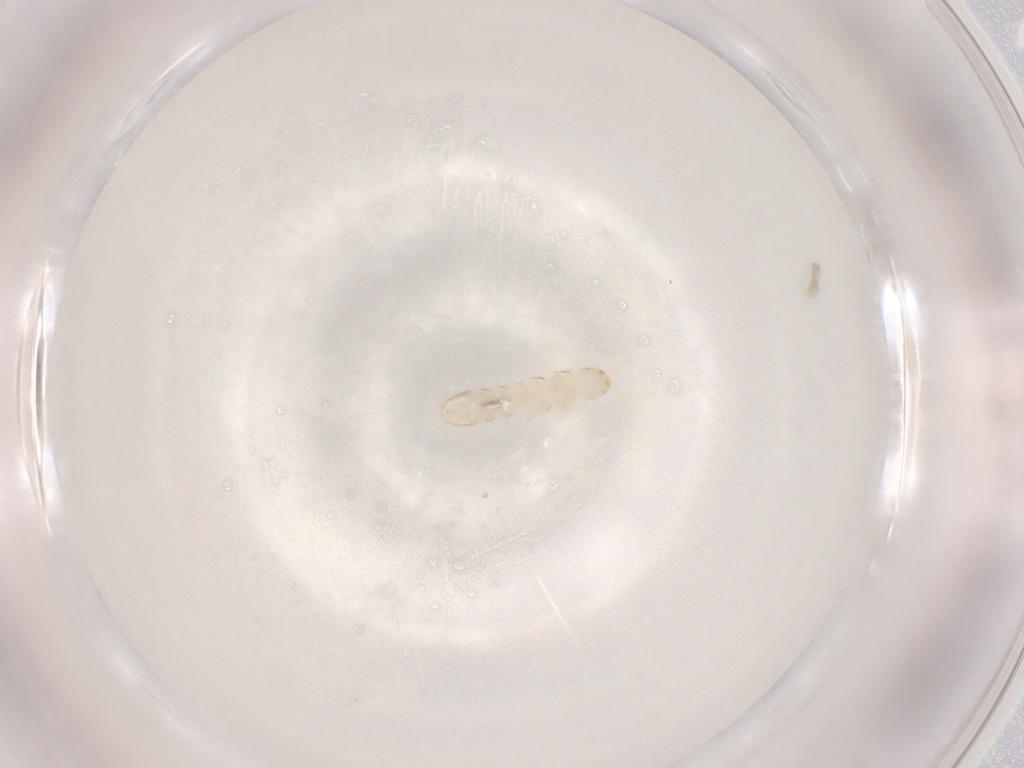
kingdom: Animalia
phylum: Arthropoda
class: Collembola
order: Entomobryomorpha
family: Isotomidae
